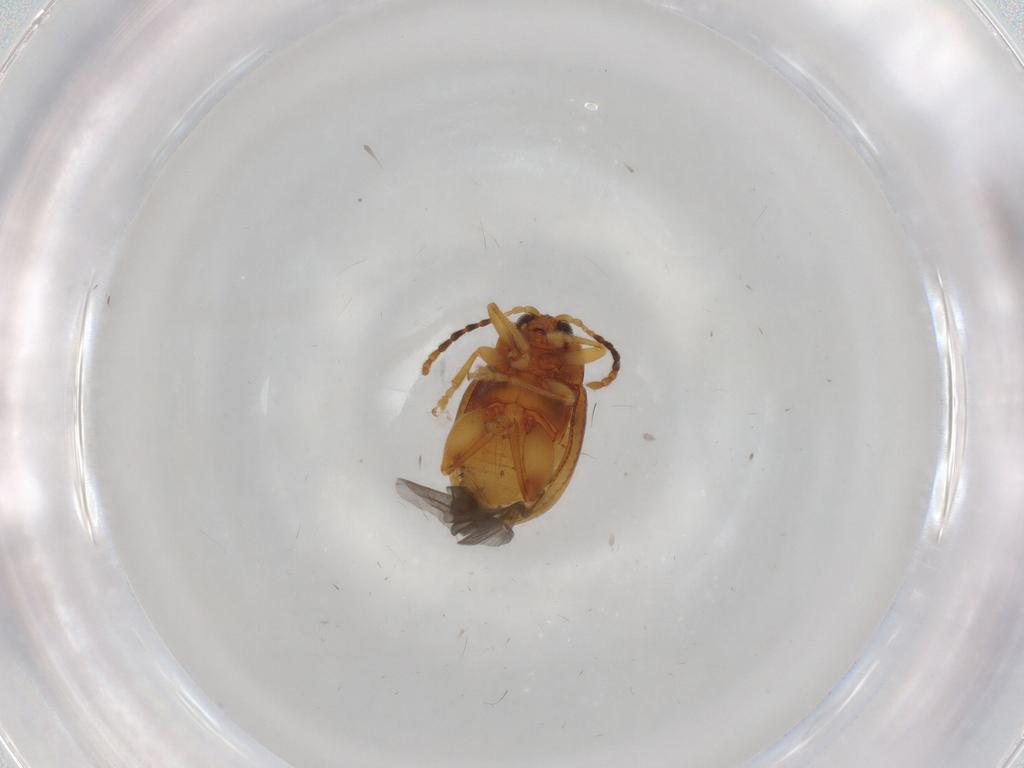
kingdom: Animalia
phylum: Arthropoda
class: Insecta
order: Coleoptera
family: Chrysomelidae
